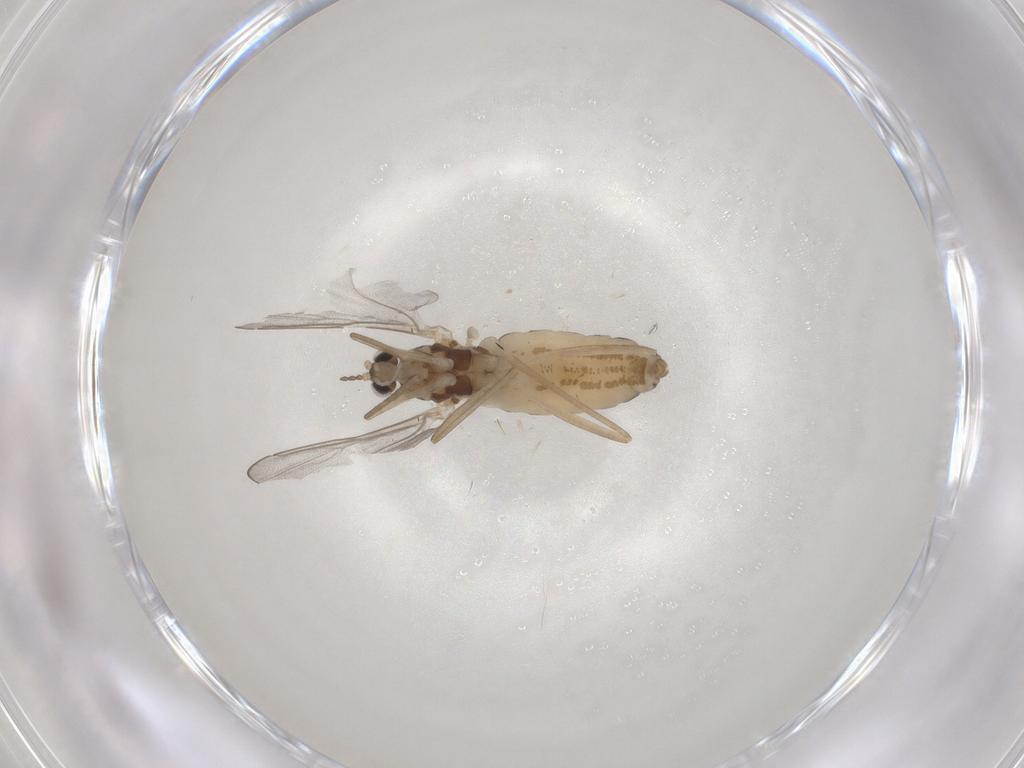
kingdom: Animalia
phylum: Arthropoda
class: Insecta
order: Diptera
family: Cecidomyiidae
